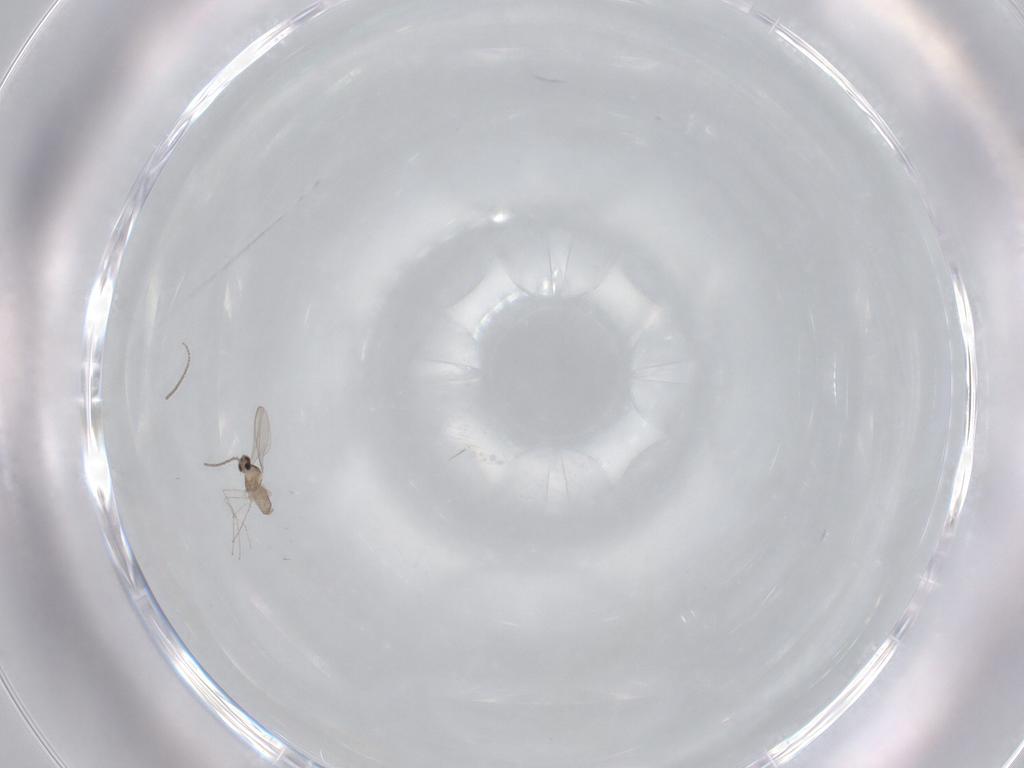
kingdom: Animalia
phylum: Arthropoda
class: Insecta
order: Diptera
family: Cecidomyiidae
